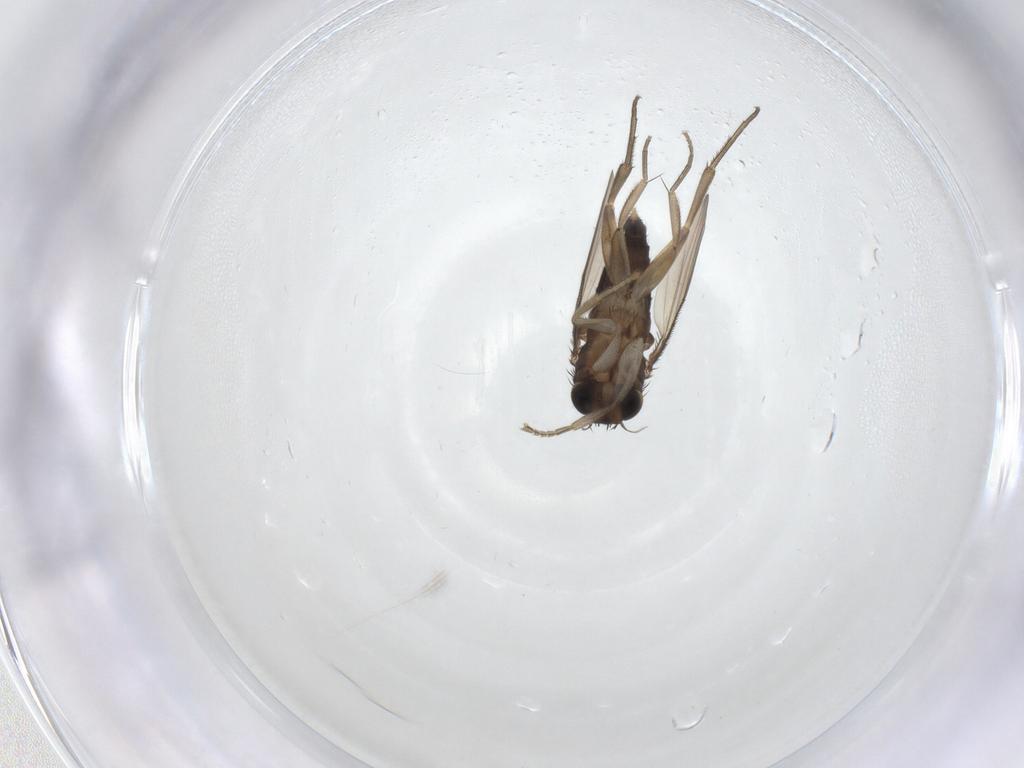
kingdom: Animalia
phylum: Arthropoda
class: Insecta
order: Diptera
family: Phoridae
